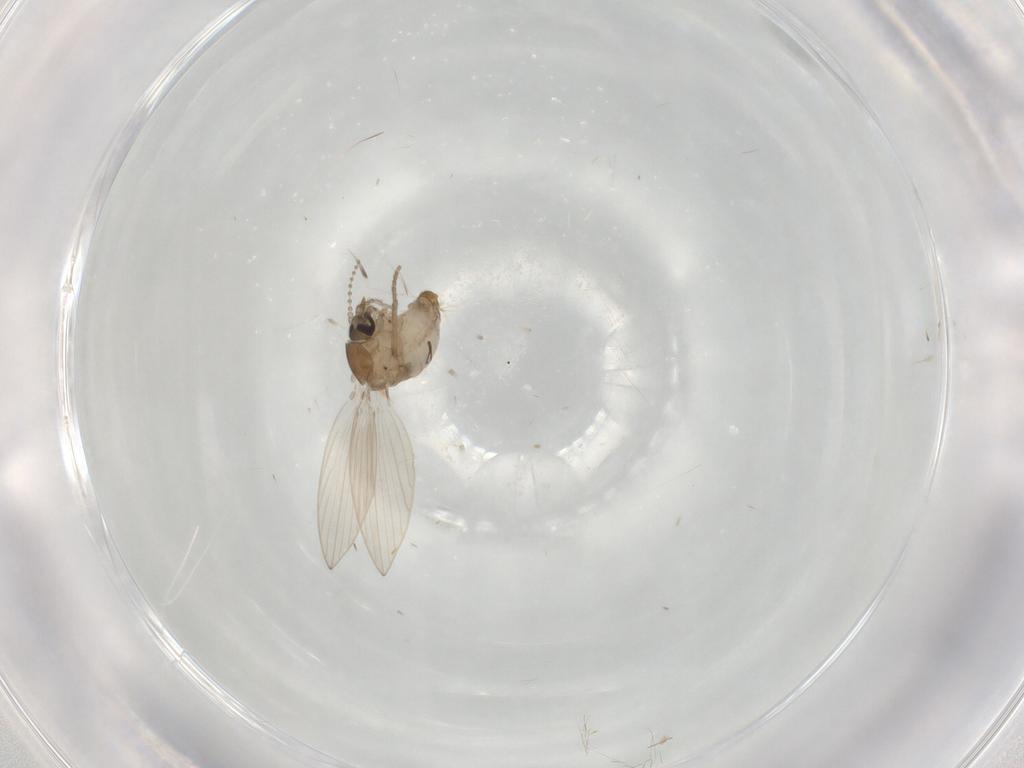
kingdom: Animalia
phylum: Arthropoda
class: Insecta
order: Diptera
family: Psychodidae
